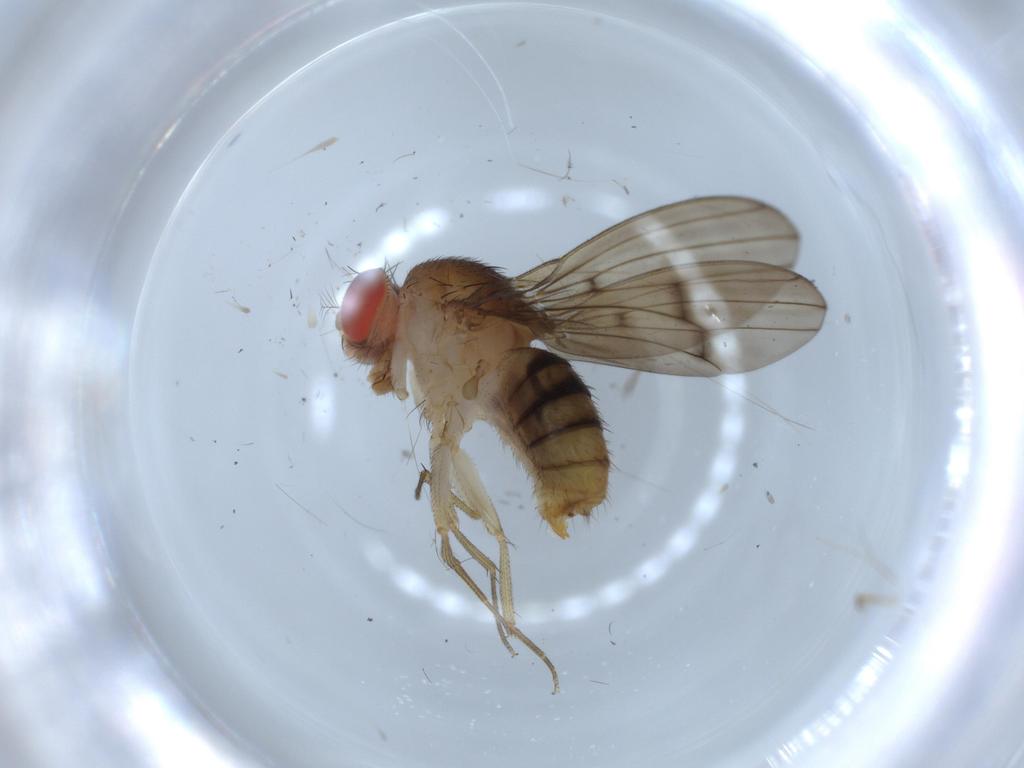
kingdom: Animalia
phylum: Arthropoda
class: Insecta
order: Diptera
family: Drosophilidae
